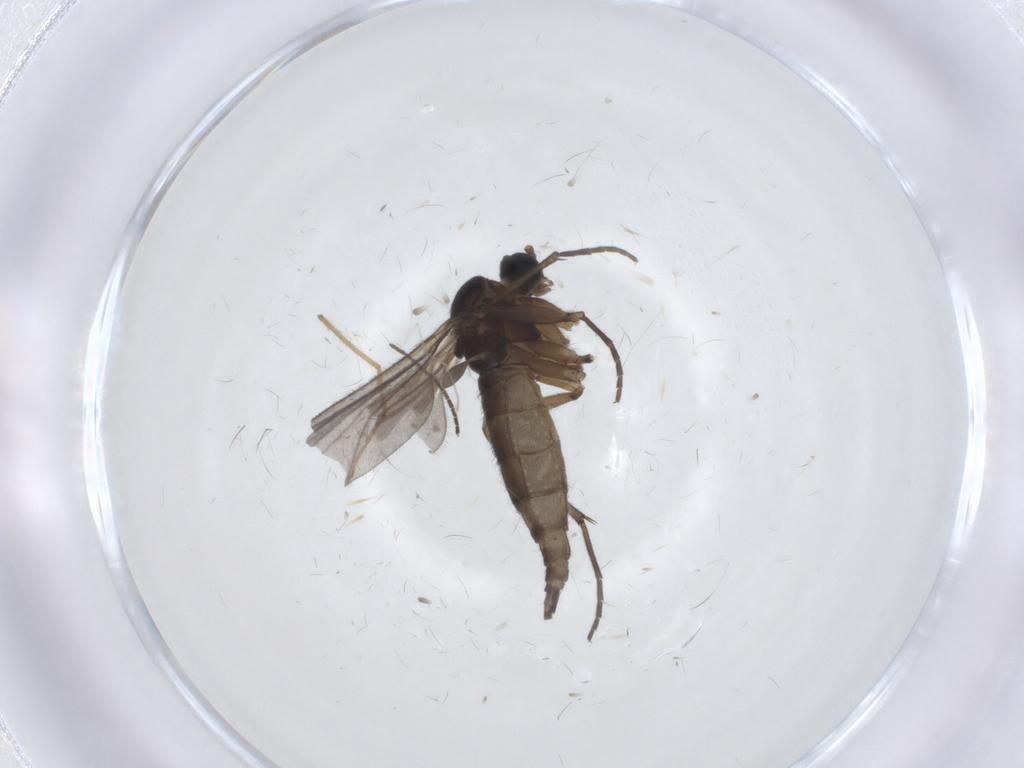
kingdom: Animalia
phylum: Arthropoda
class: Insecta
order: Diptera
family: Sciaridae
